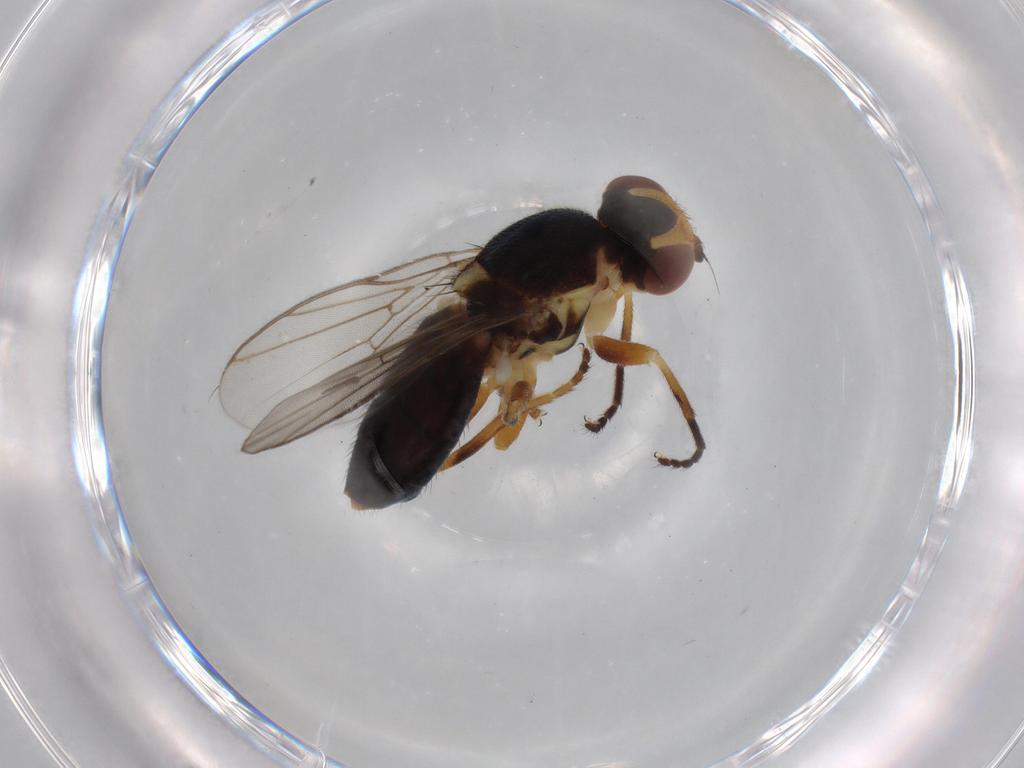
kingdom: Animalia
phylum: Arthropoda
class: Insecta
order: Diptera
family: Chloropidae
